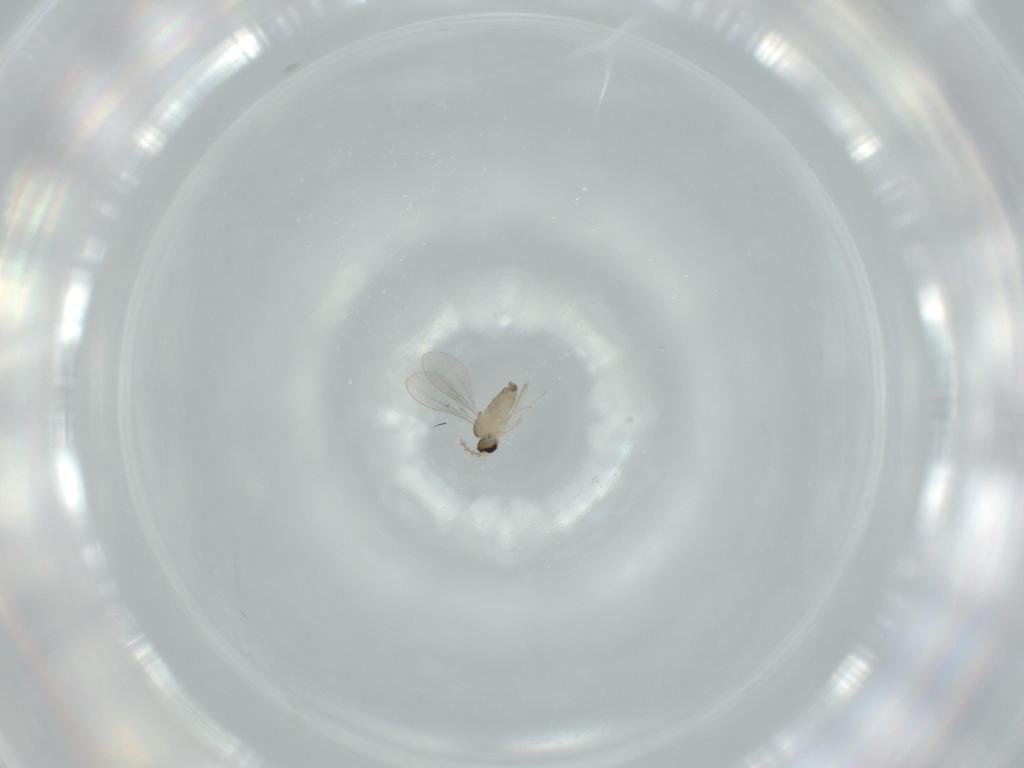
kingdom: Animalia
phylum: Arthropoda
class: Insecta
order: Diptera
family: Cecidomyiidae
